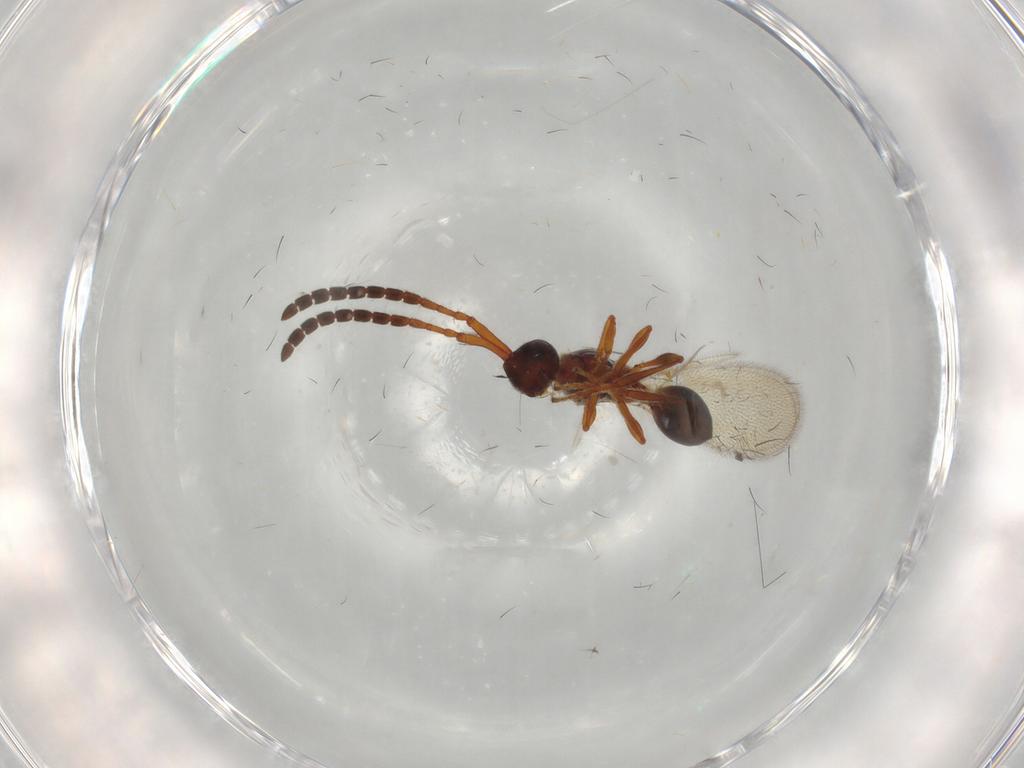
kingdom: Animalia
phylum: Arthropoda
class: Insecta
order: Hymenoptera
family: Diapriidae
